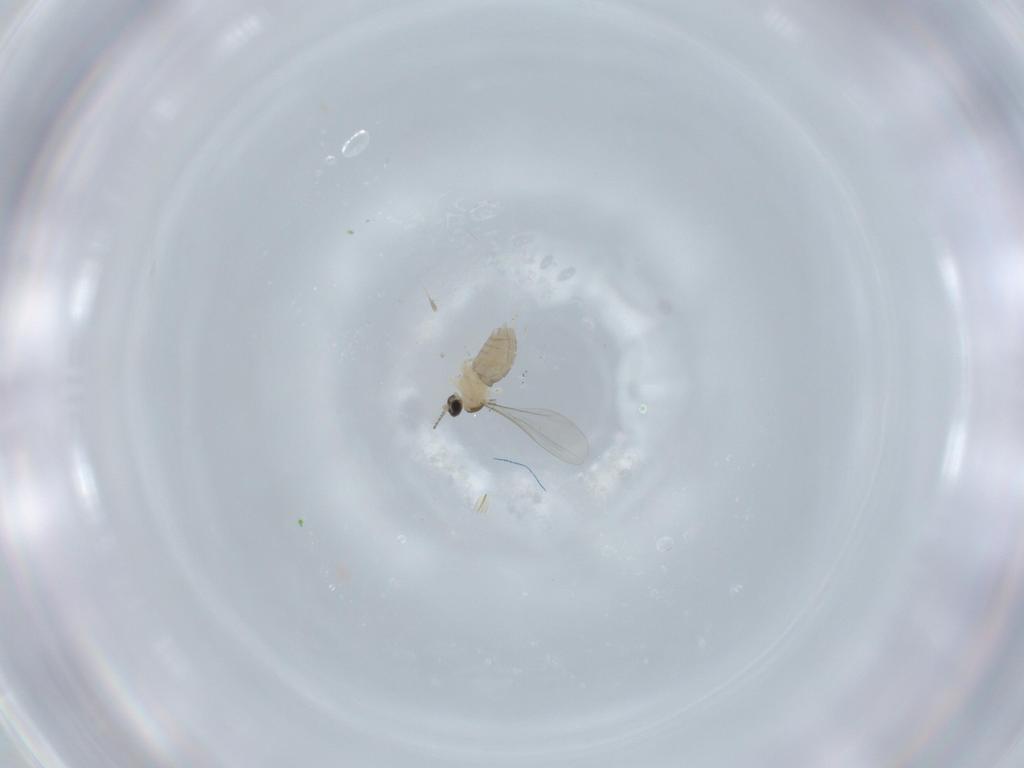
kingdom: Animalia
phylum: Arthropoda
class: Insecta
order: Diptera
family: Phoridae
